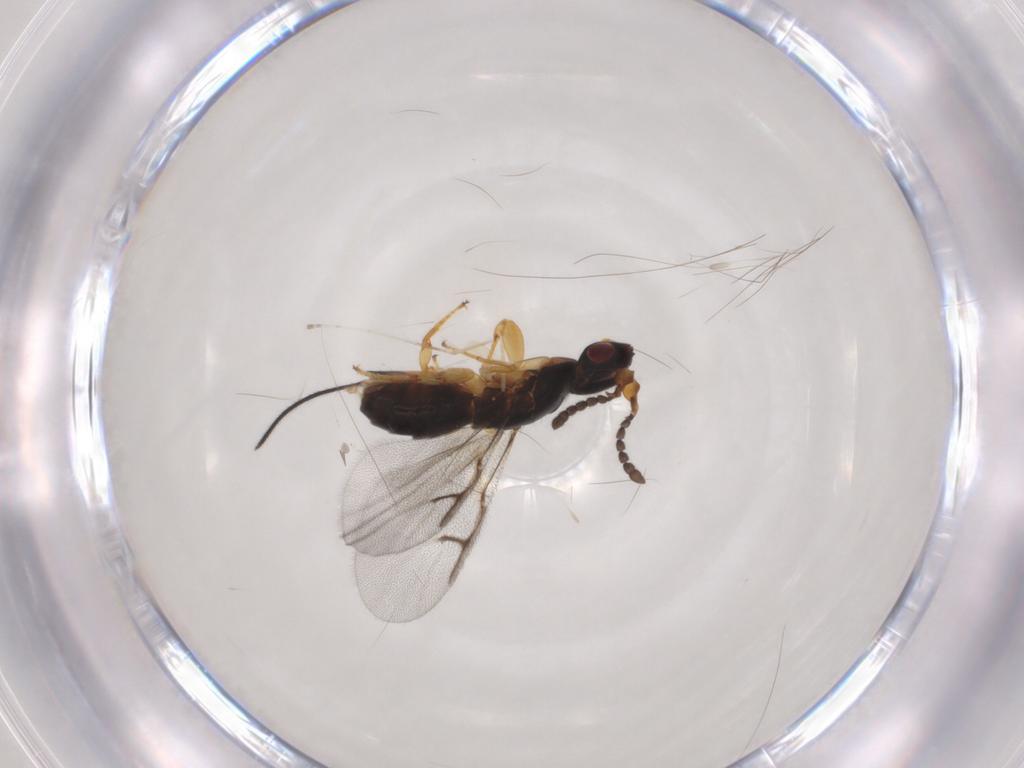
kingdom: Animalia
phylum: Arthropoda
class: Insecta
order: Hymenoptera
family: Agaonidae
